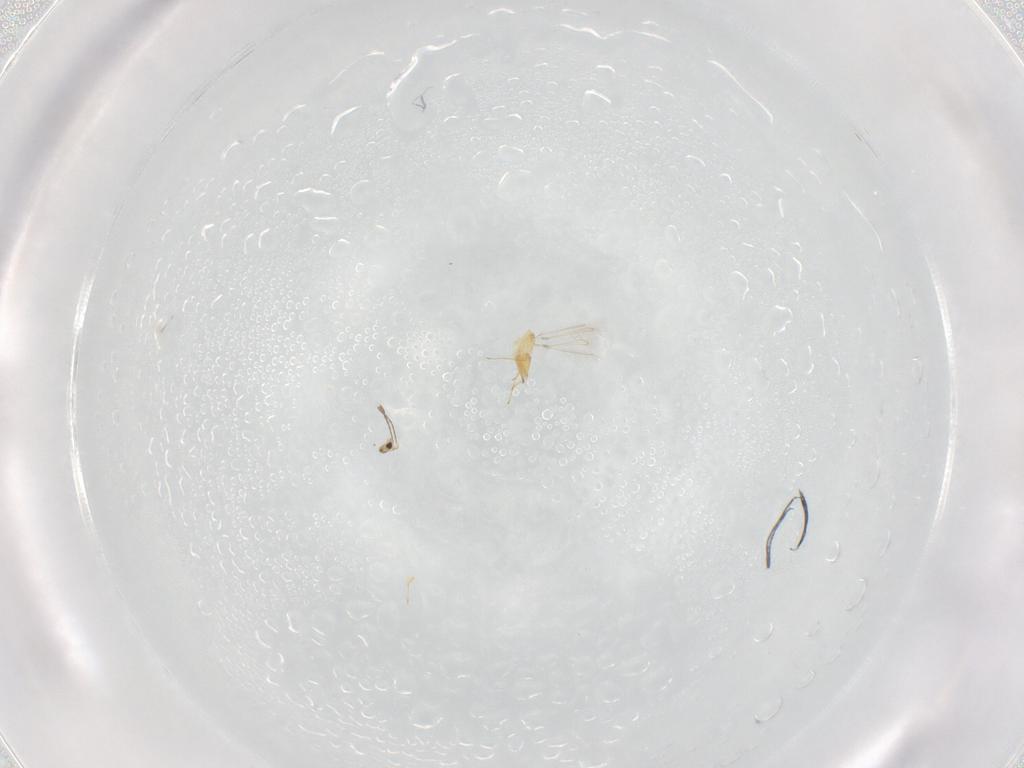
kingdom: Animalia
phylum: Arthropoda
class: Insecta
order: Hymenoptera
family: Mymaridae
